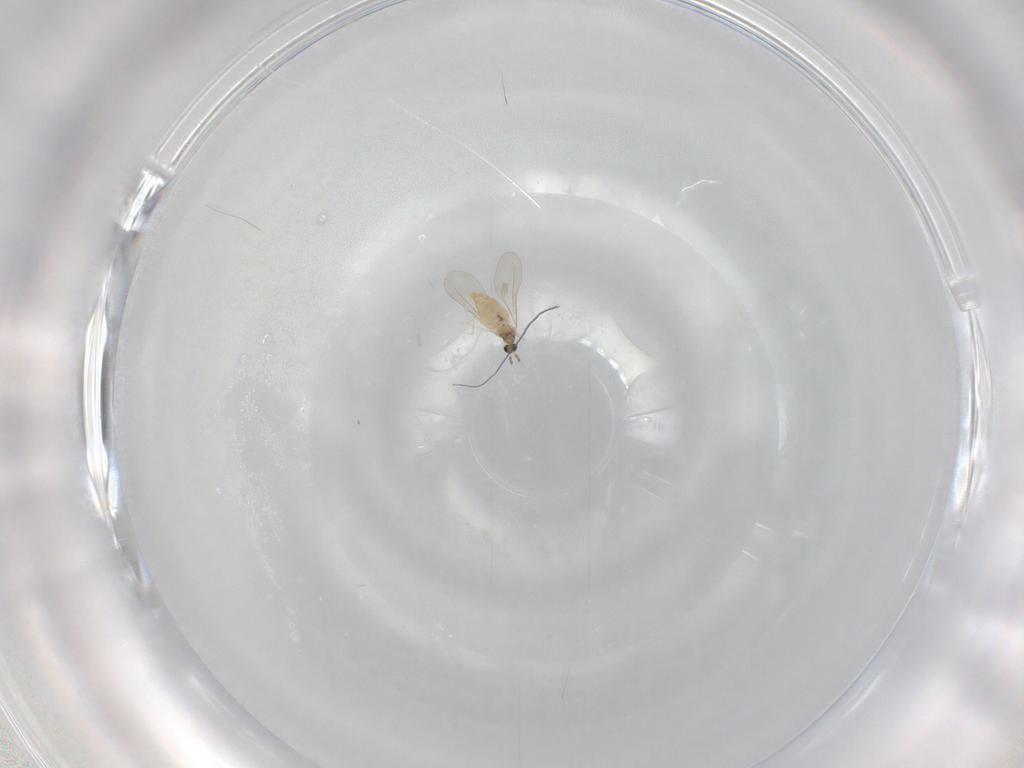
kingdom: Animalia
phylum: Arthropoda
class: Insecta
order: Diptera
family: Cecidomyiidae
